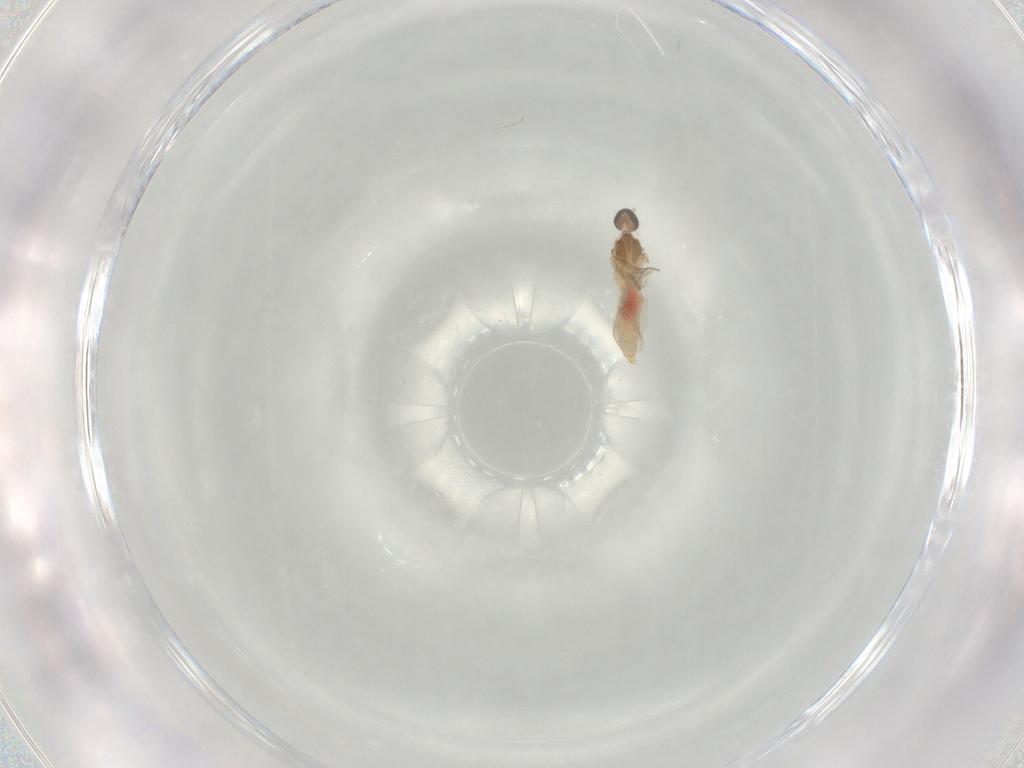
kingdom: Animalia
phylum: Arthropoda
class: Insecta
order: Diptera
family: Cecidomyiidae
